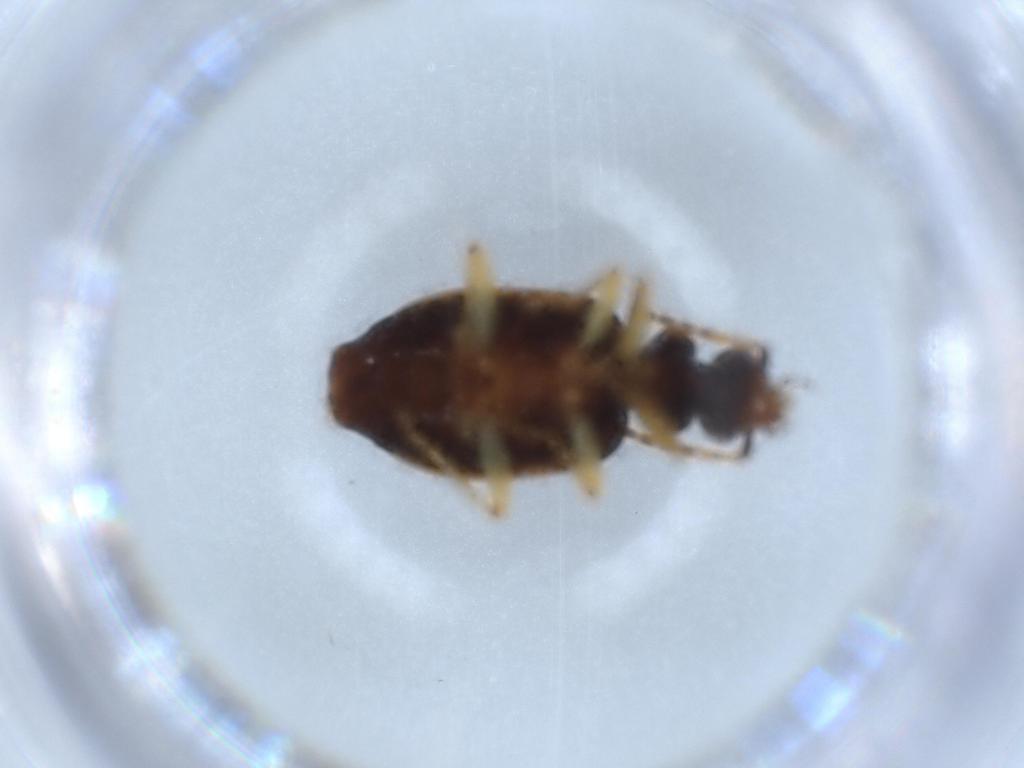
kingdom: Animalia
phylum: Arthropoda
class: Insecta
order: Coleoptera
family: Carabidae
